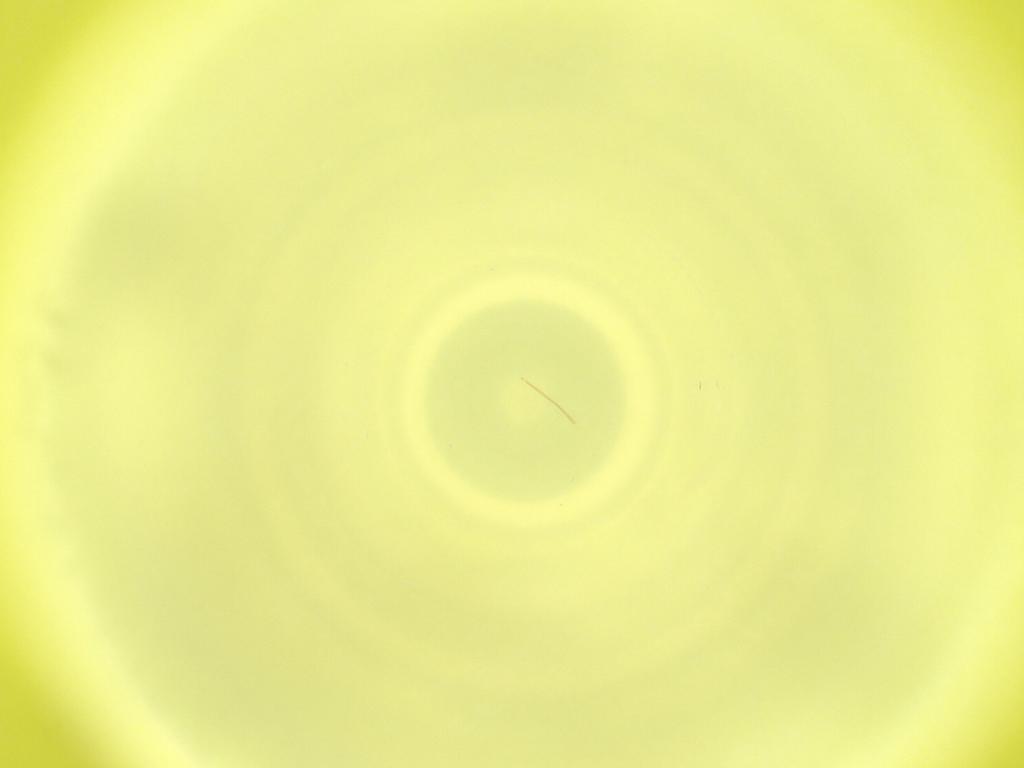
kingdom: Animalia
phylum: Arthropoda
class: Insecta
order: Diptera
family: Cecidomyiidae
